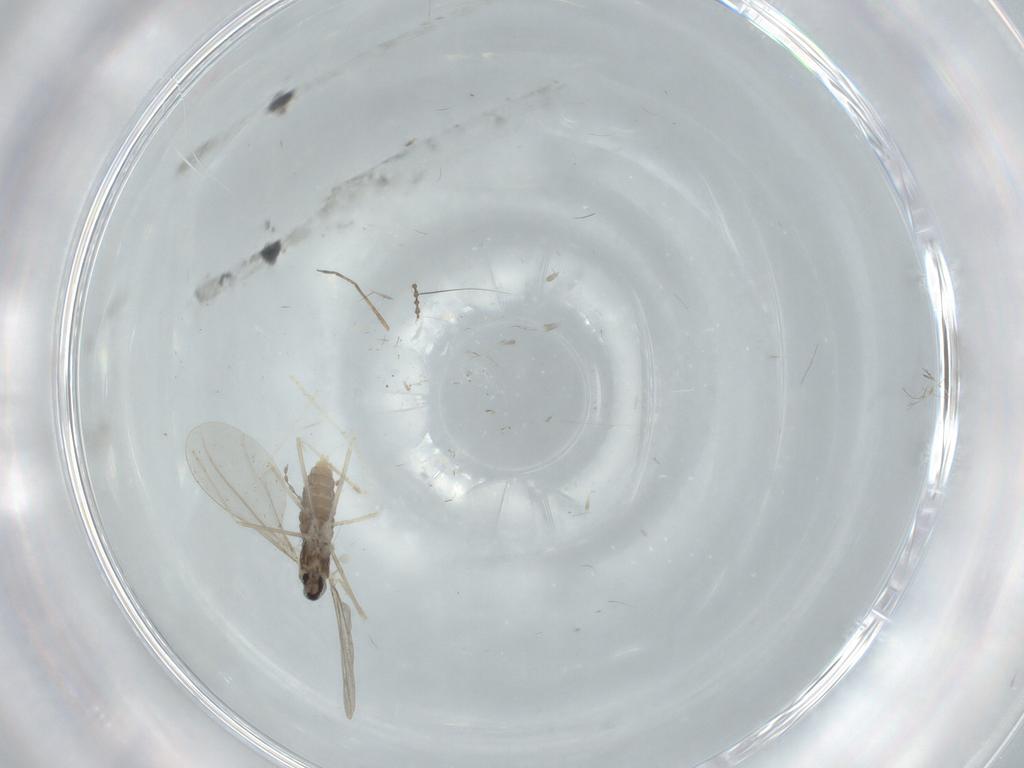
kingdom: Animalia
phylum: Arthropoda
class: Insecta
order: Diptera
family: Cecidomyiidae
